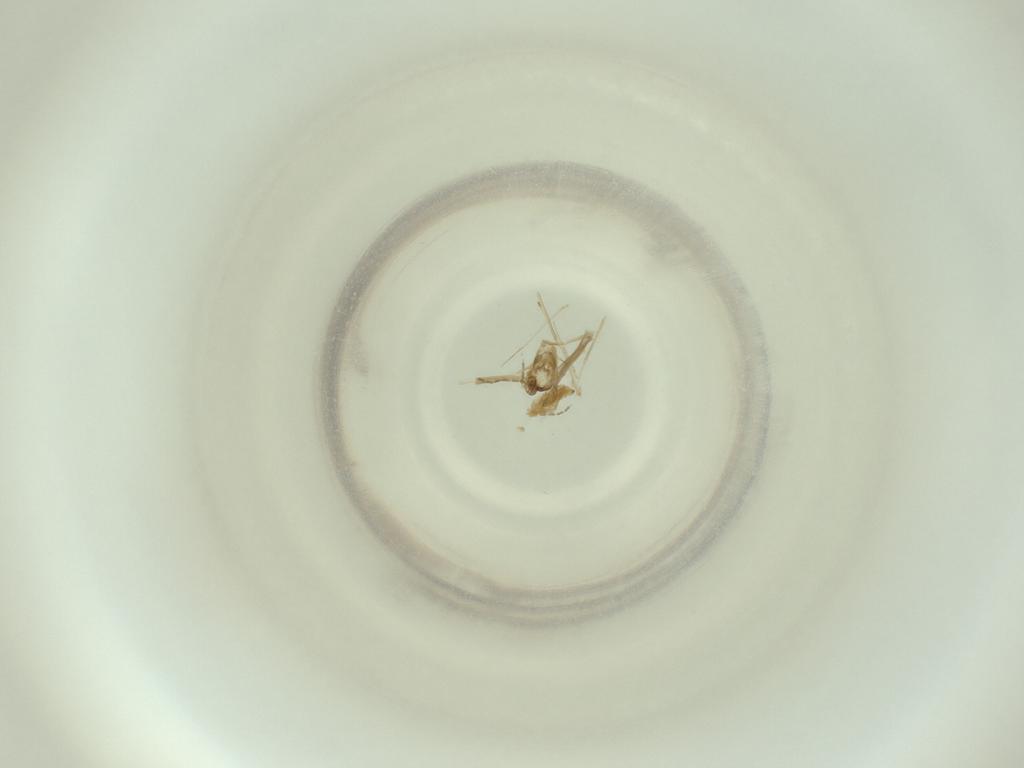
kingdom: Animalia
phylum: Arthropoda
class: Insecta
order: Diptera
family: Cecidomyiidae
